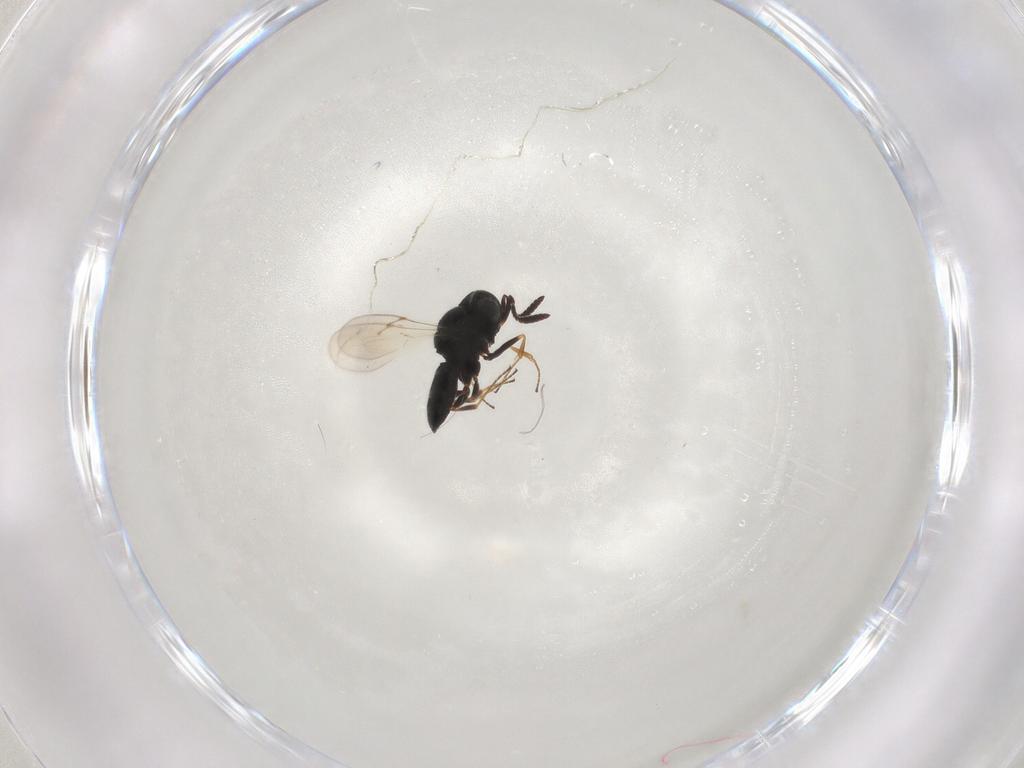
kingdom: Animalia
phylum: Arthropoda
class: Insecta
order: Hymenoptera
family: Scelionidae
